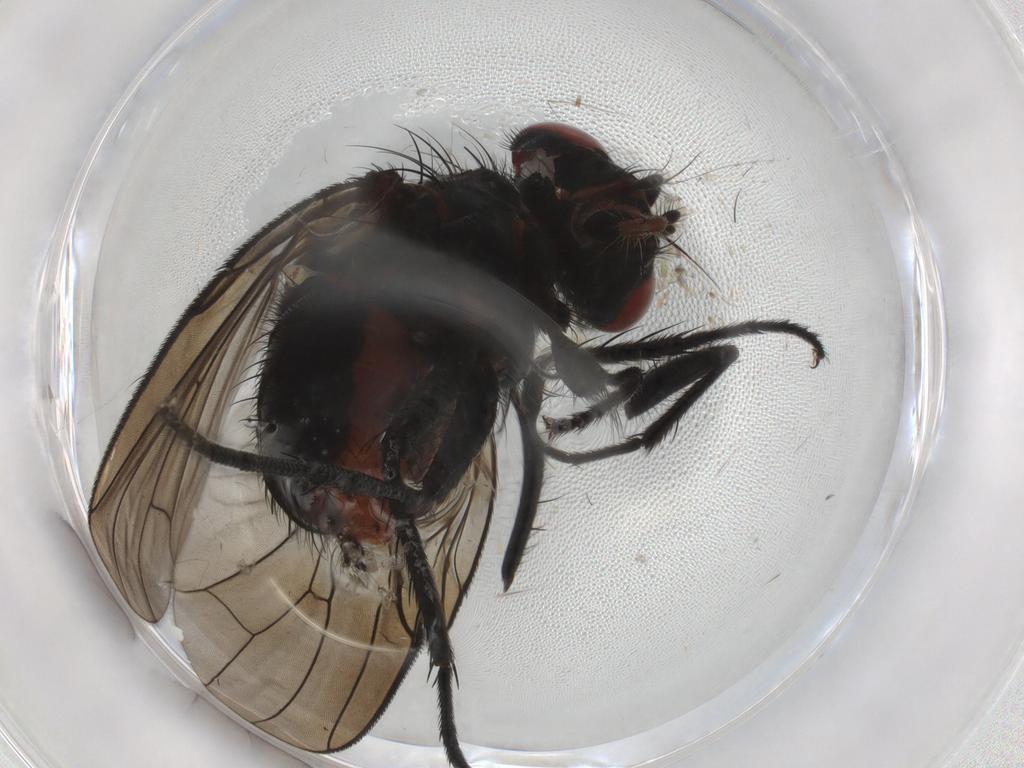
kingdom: Animalia
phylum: Arthropoda
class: Insecta
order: Diptera
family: Anthomyiidae
